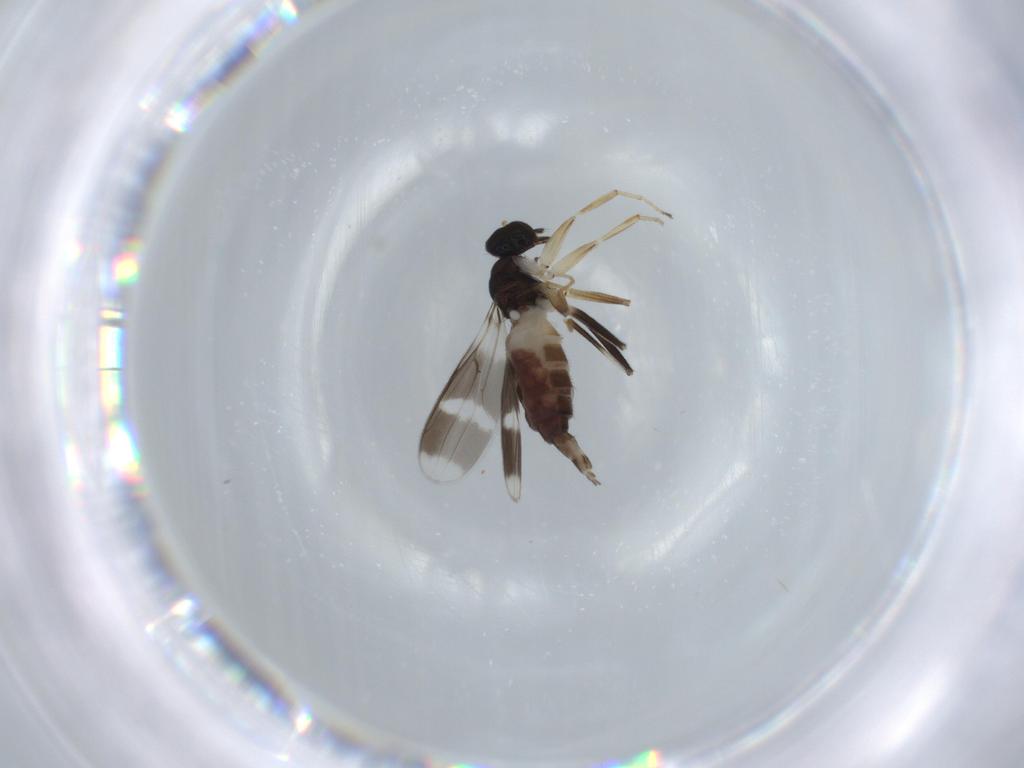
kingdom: Animalia
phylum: Arthropoda
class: Insecta
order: Diptera
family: Hybotidae
